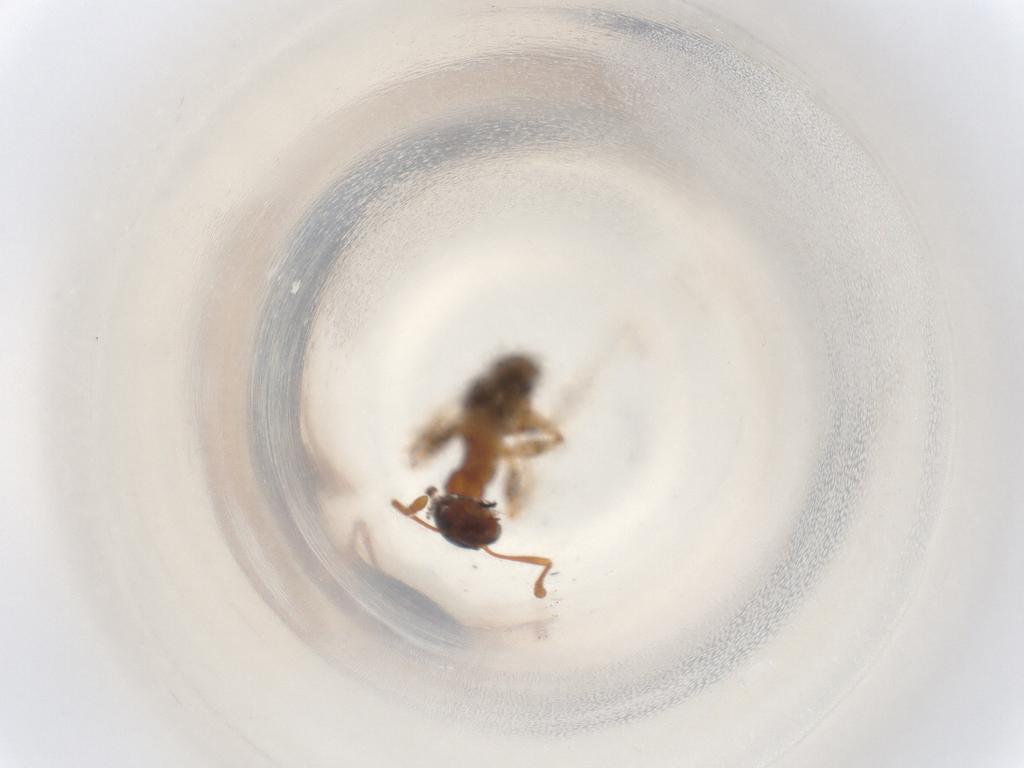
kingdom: Animalia
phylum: Arthropoda
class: Insecta
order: Hymenoptera
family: Formicidae
